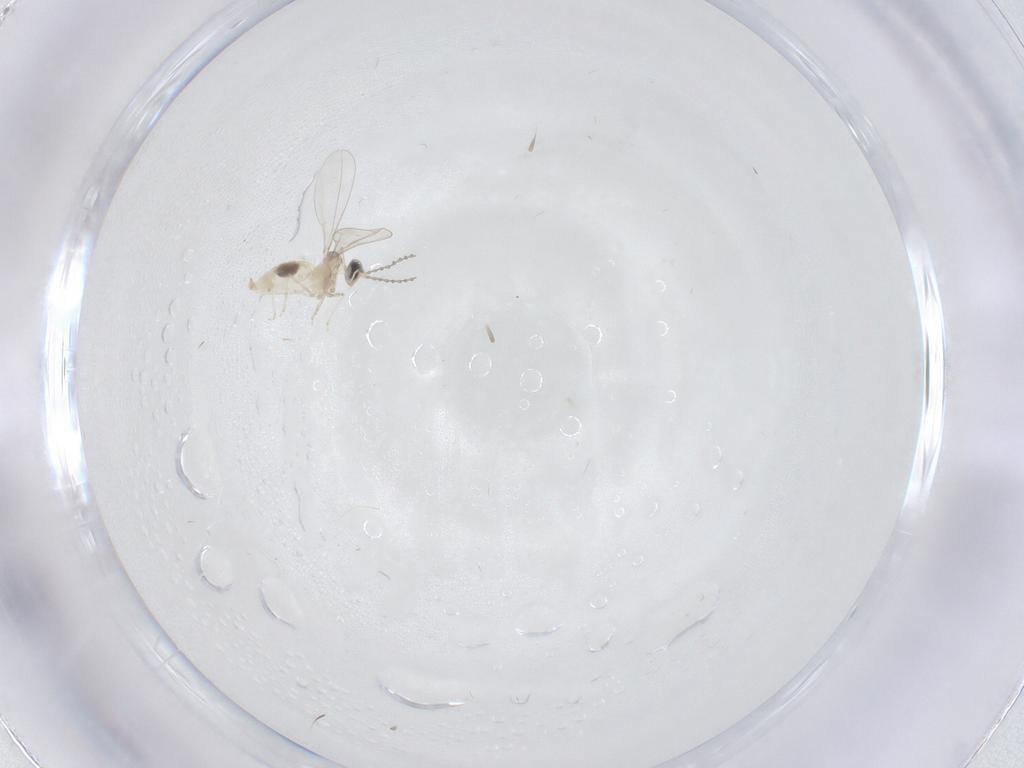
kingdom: Animalia
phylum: Arthropoda
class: Insecta
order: Diptera
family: Cecidomyiidae
